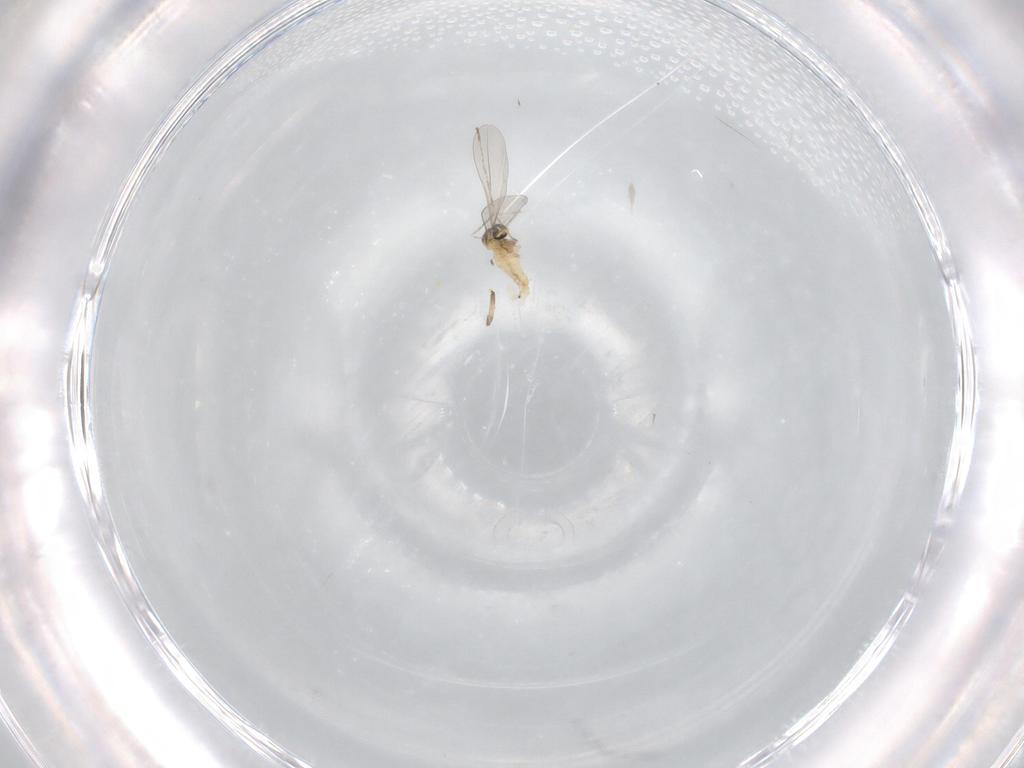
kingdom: Animalia
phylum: Arthropoda
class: Insecta
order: Diptera
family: Cecidomyiidae
